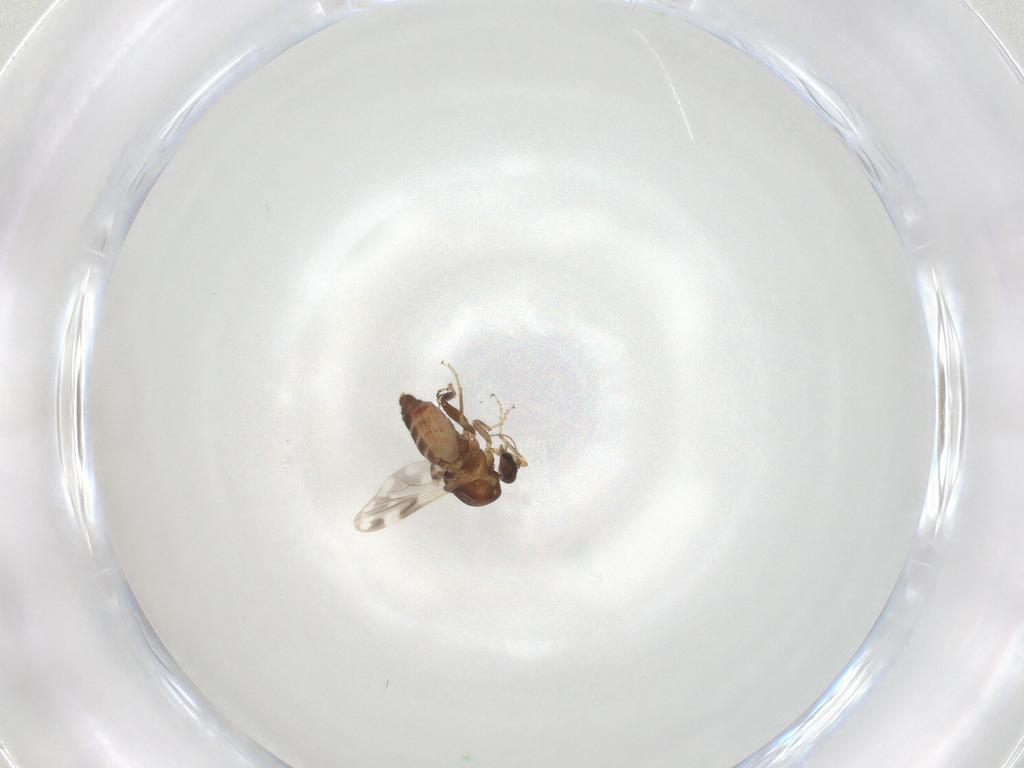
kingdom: Animalia
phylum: Arthropoda
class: Insecta
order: Diptera
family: Ceratopogonidae
